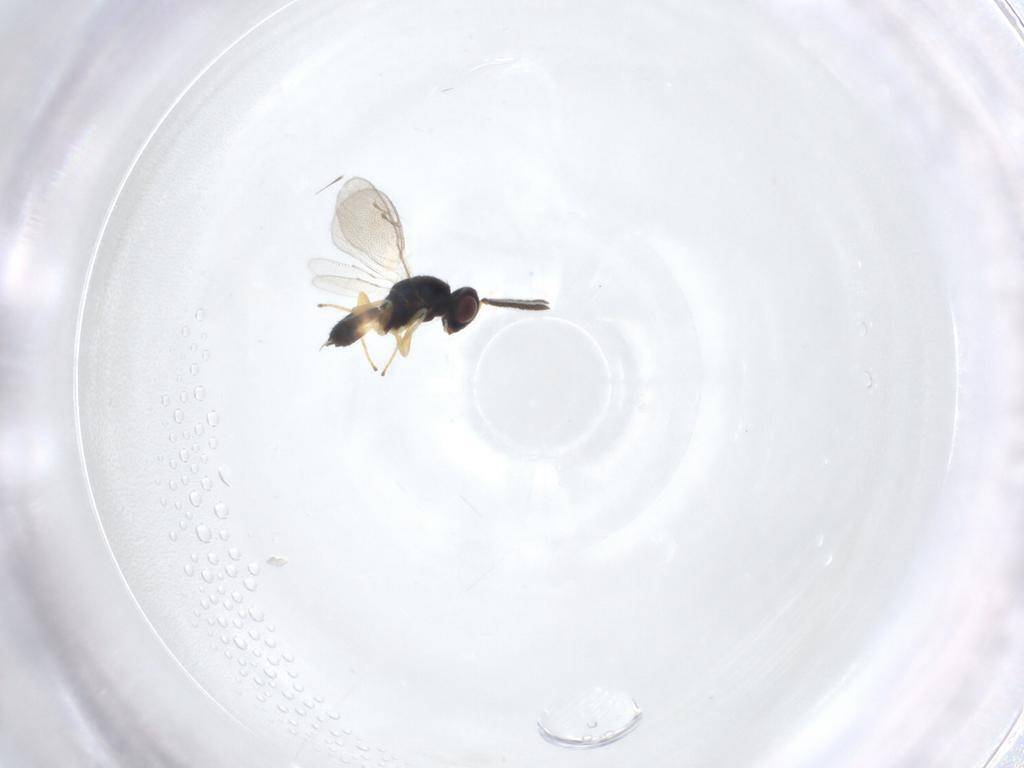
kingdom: Animalia
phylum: Arthropoda
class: Insecta
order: Hymenoptera
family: Pteromalidae
